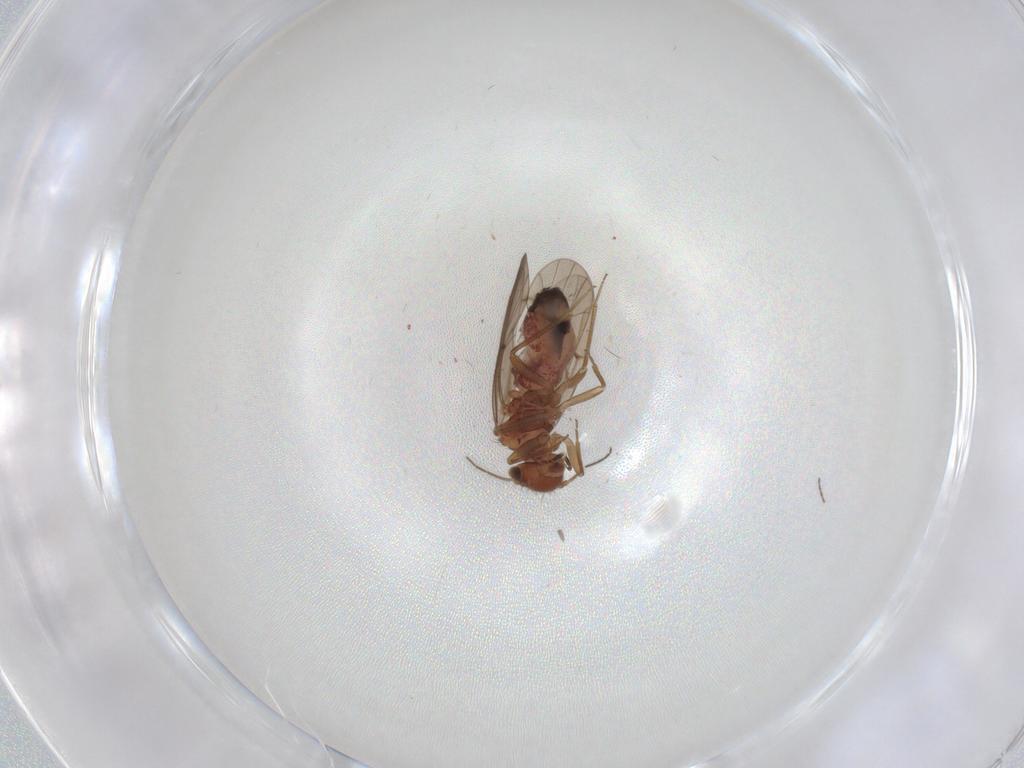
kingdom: Animalia
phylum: Arthropoda
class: Insecta
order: Psocodea
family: Ectopsocidae
